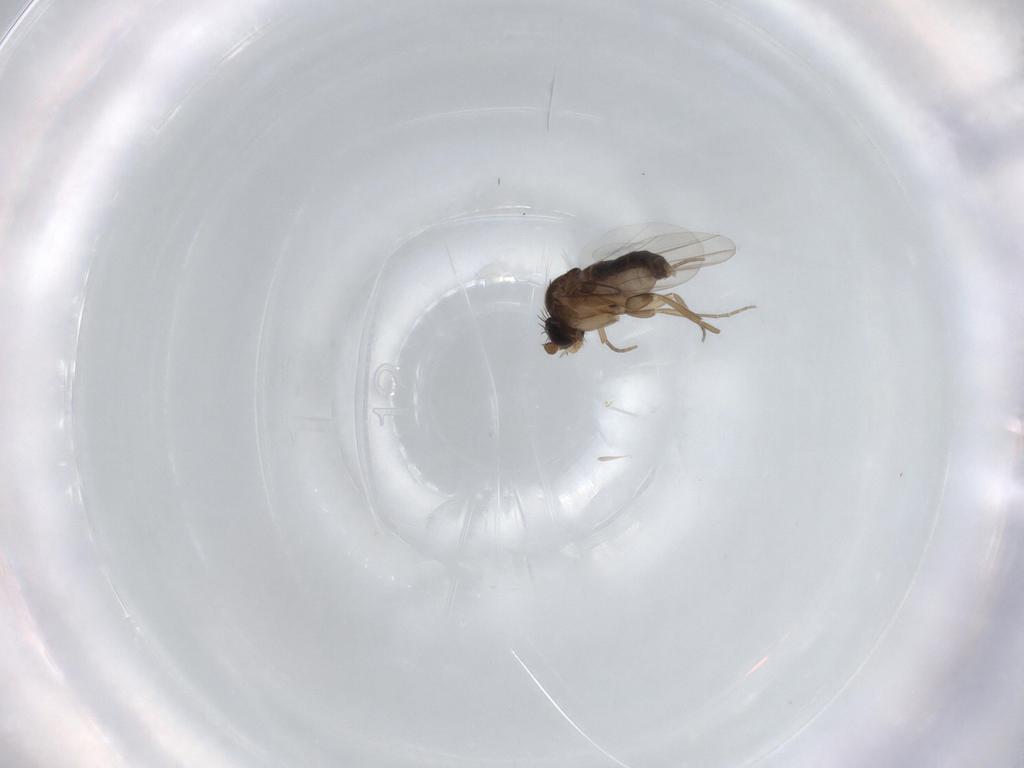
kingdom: Animalia
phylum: Arthropoda
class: Insecta
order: Diptera
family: Phoridae
